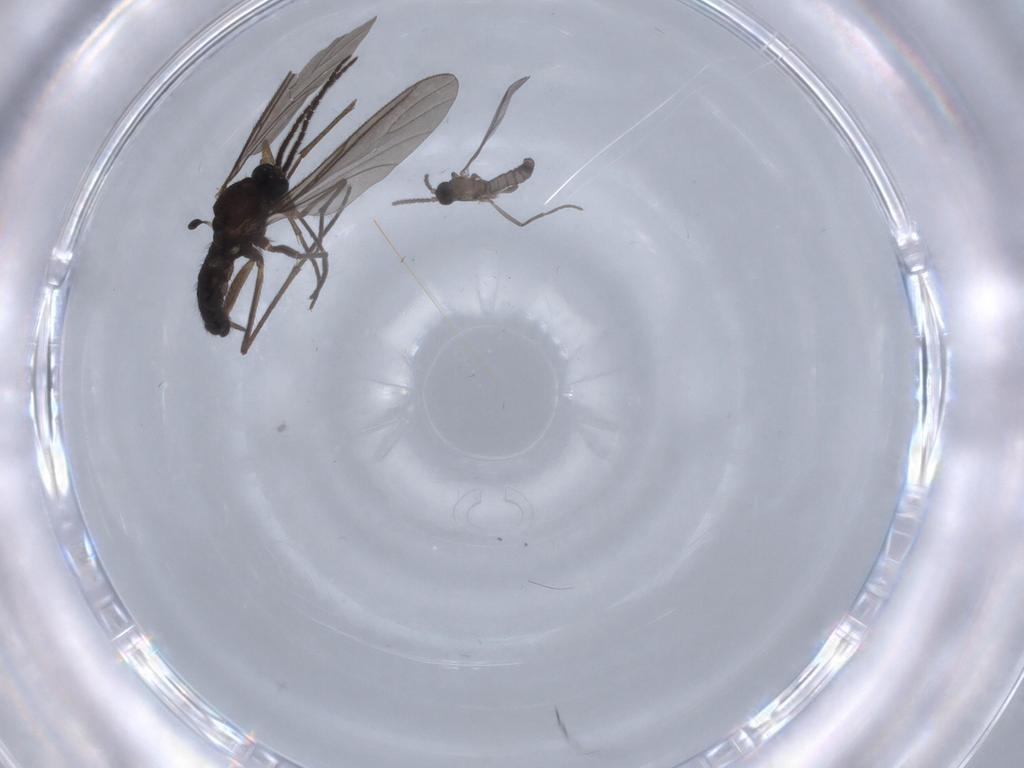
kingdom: Animalia
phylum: Arthropoda
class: Insecta
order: Diptera
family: Sciaridae
